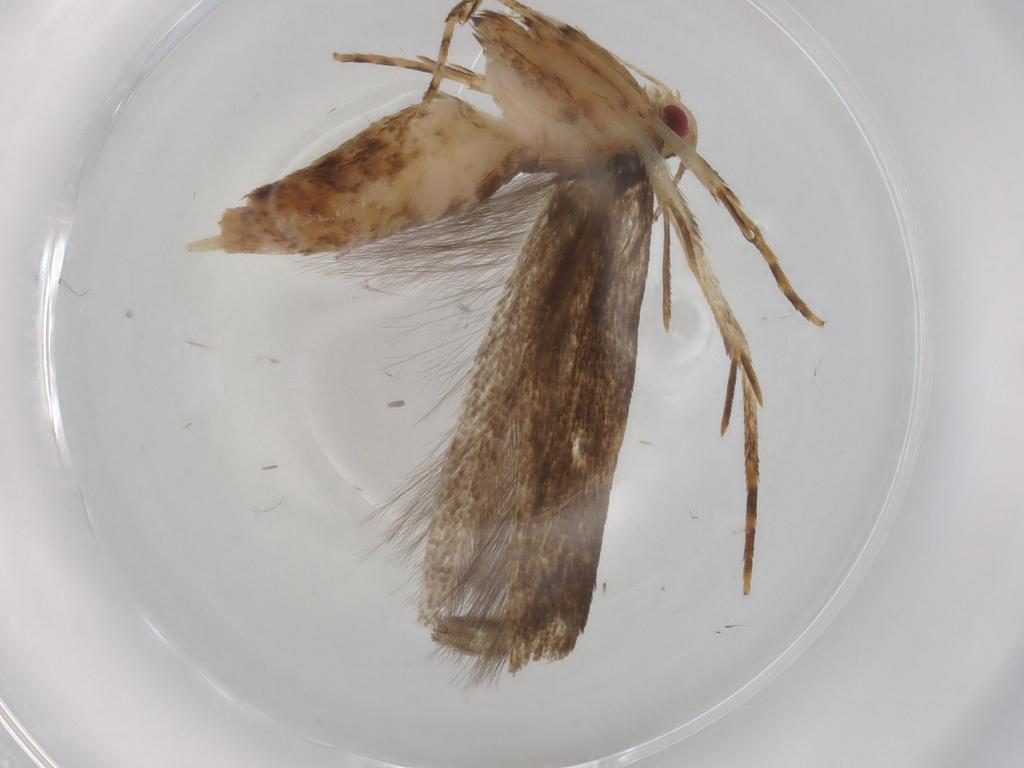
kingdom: Animalia
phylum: Arthropoda
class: Insecta
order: Lepidoptera
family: Cosmopterigidae
